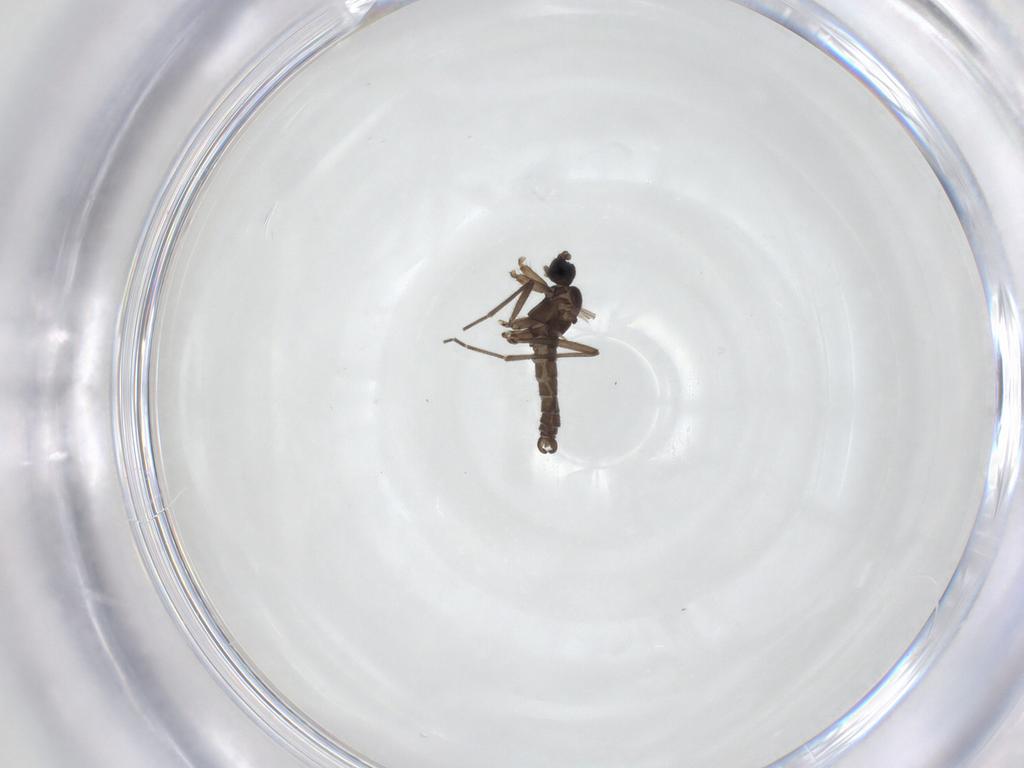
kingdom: Animalia
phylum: Arthropoda
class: Insecta
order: Diptera
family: Sciaridae
